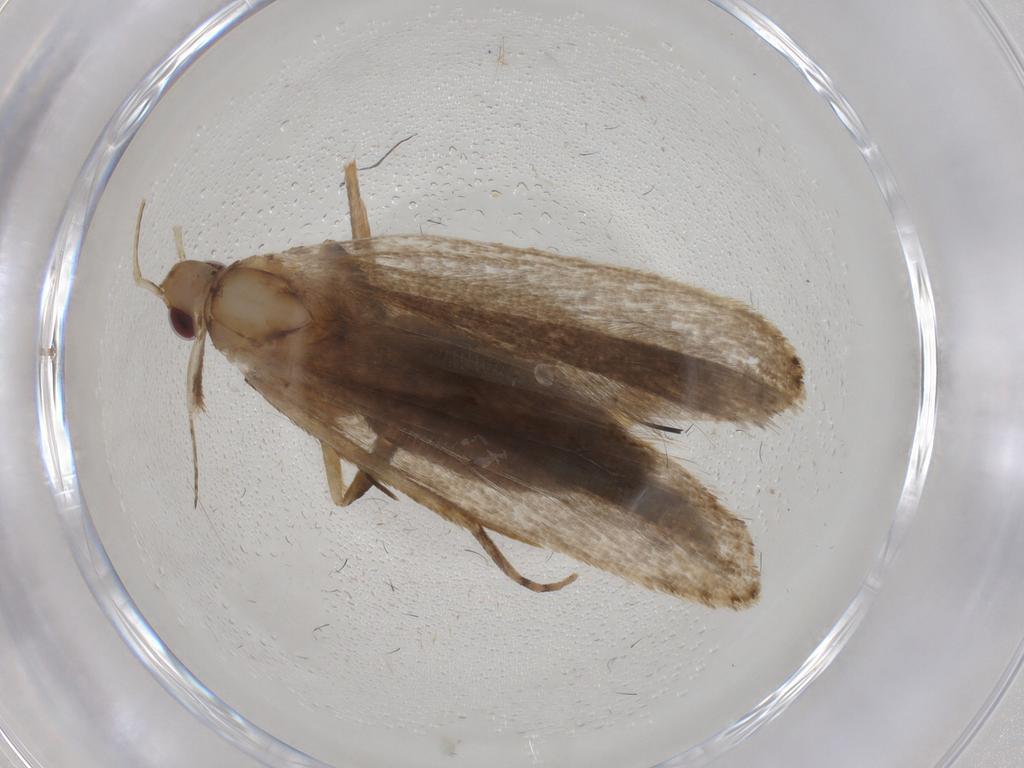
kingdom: Animalia
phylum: Arthropoda
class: Insecta
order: Lepidoptera
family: Gelechiidae
